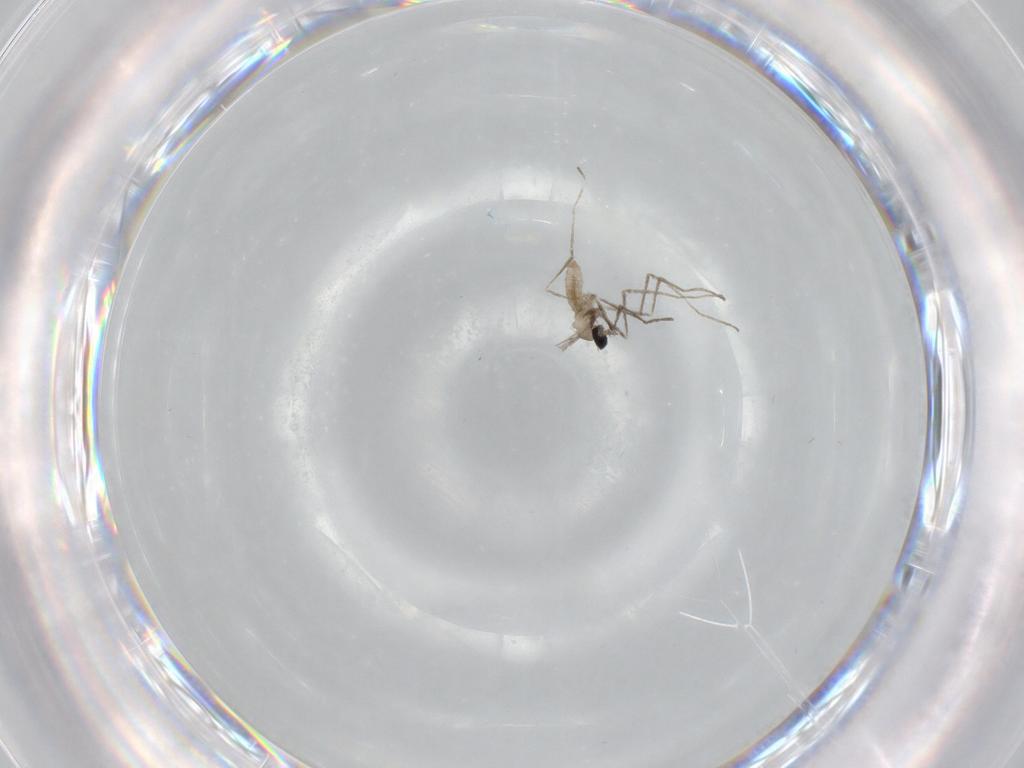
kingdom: Animalia
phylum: Arthropoda
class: Insecta
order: Diptera
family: Cecidomyiidae
